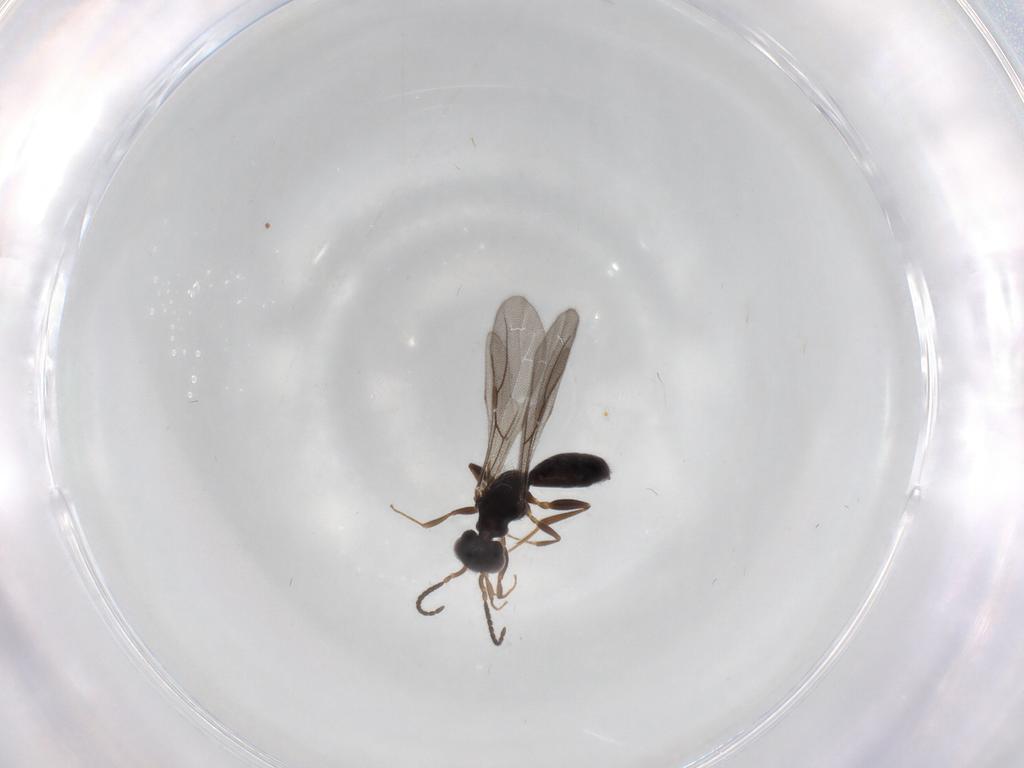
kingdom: Animalia
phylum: Arthropoda
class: Insecta
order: Hymenoptera
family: Bethylidae
